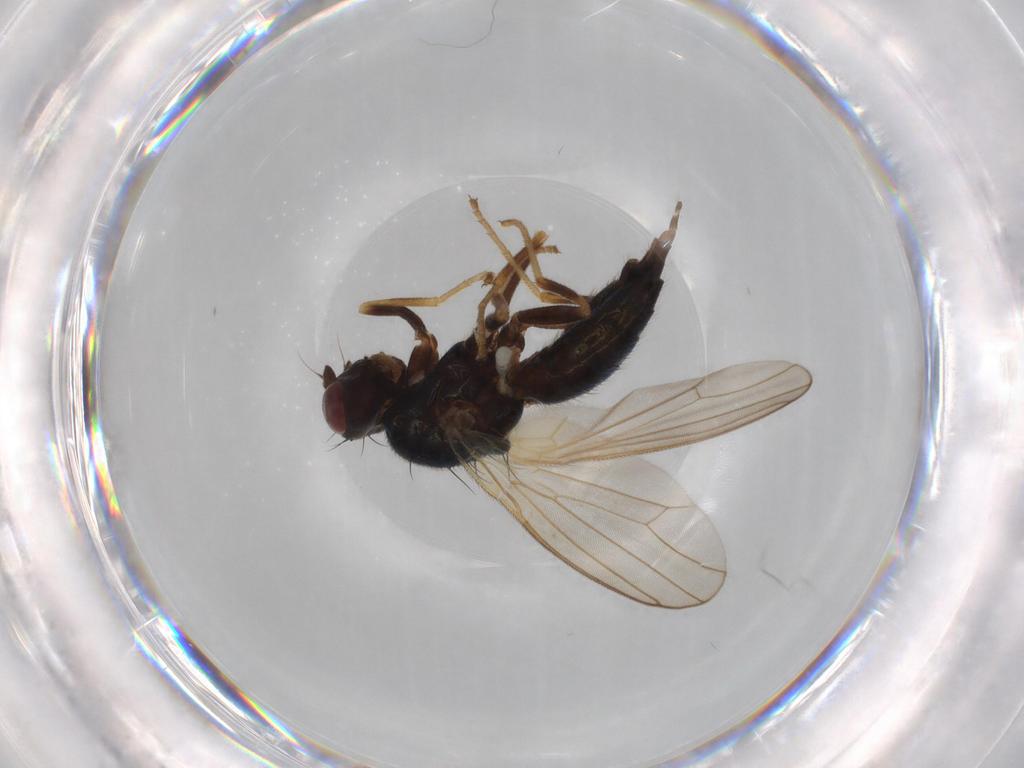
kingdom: Animalia
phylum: Arthropoda
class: Insecta
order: Diptera
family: Anthomyiidae
